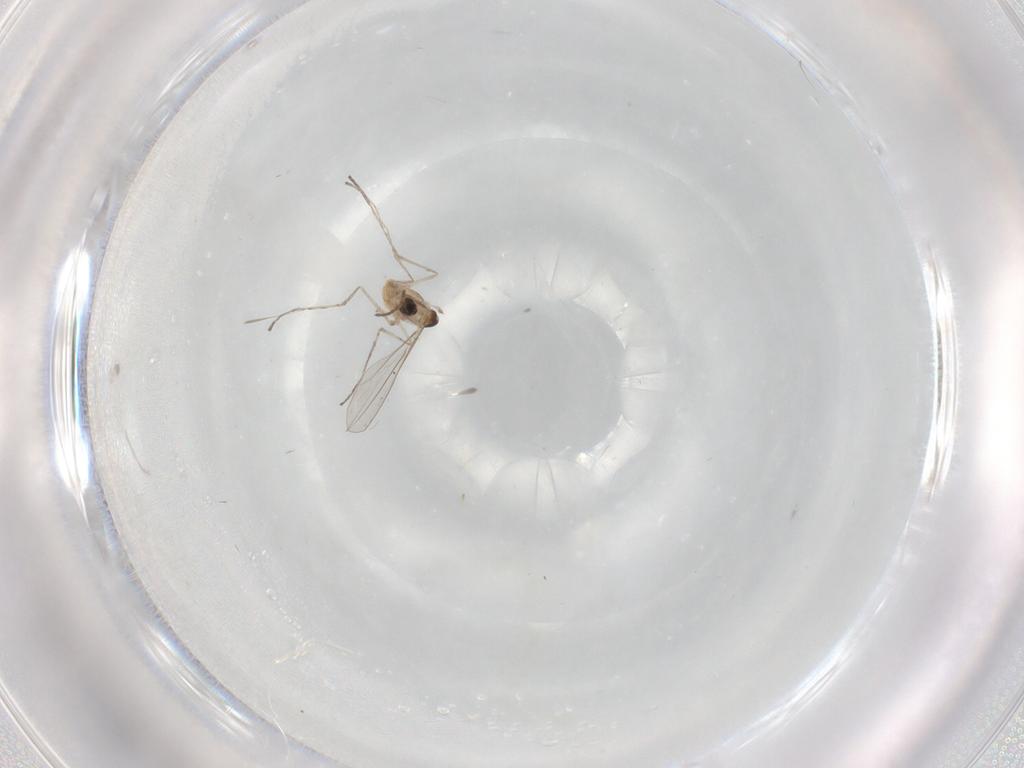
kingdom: Animalia
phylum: Arthropoda
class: Insecta
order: Diptera
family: Cecidomyiidae
